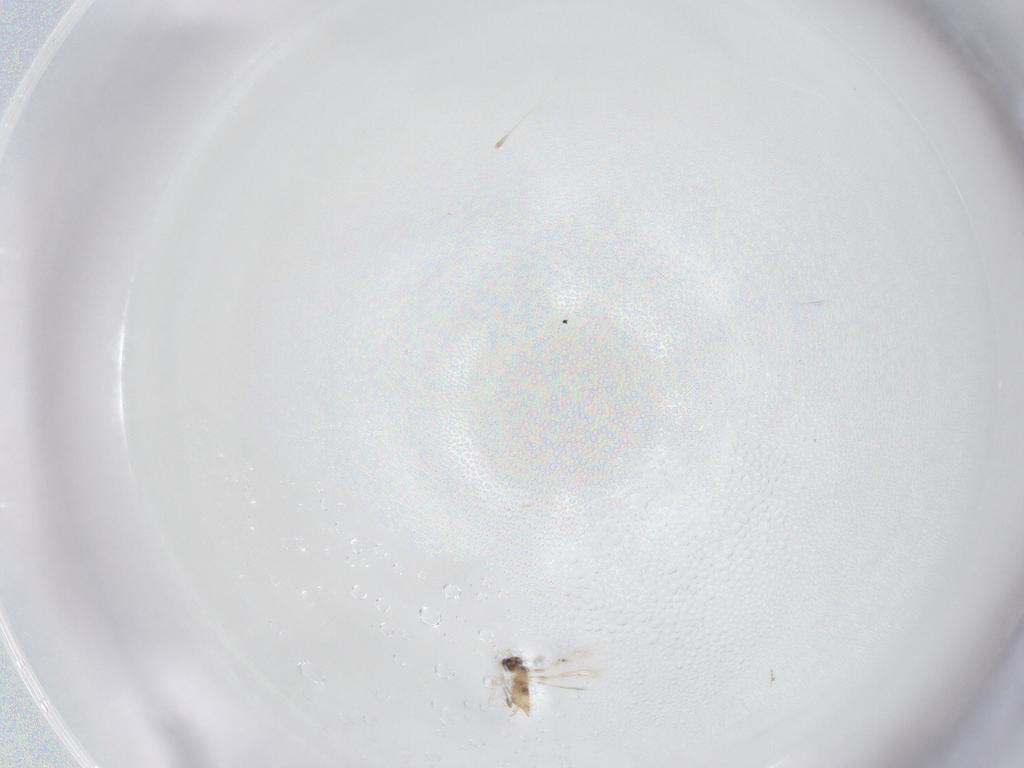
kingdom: Animalia
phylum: Arthropoda
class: Insecta
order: Hymenoptera
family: Mymaridae
